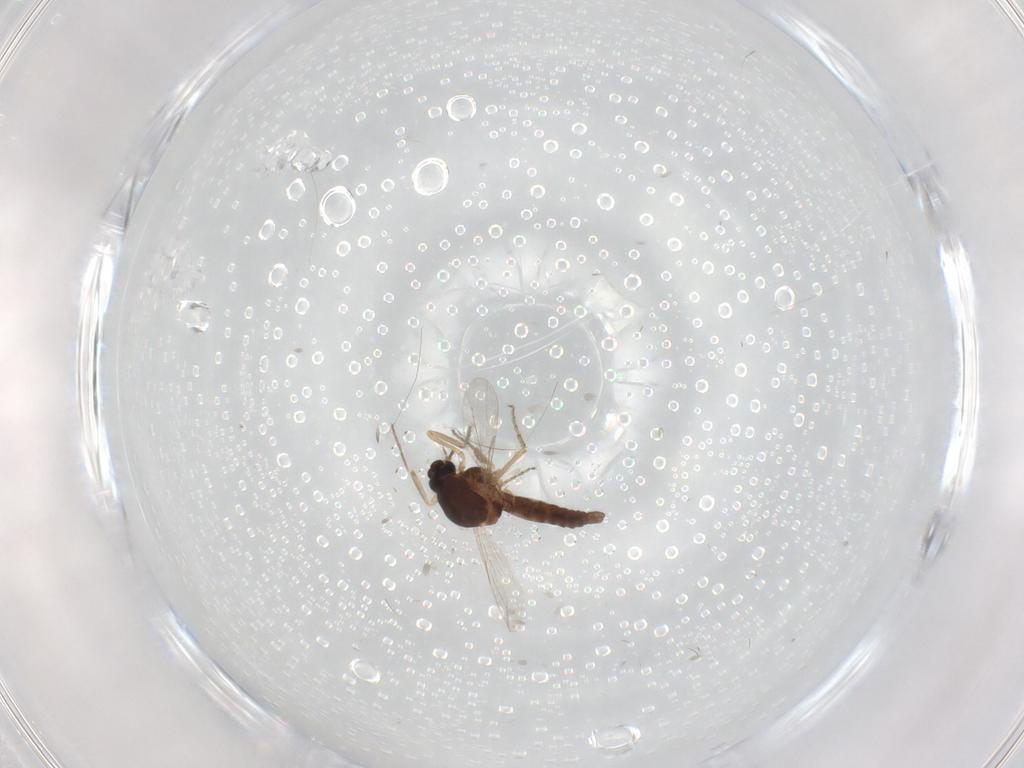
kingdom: Animalia
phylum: Arthropoda
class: Insecta
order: Diptera
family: Ceratopogonidae
